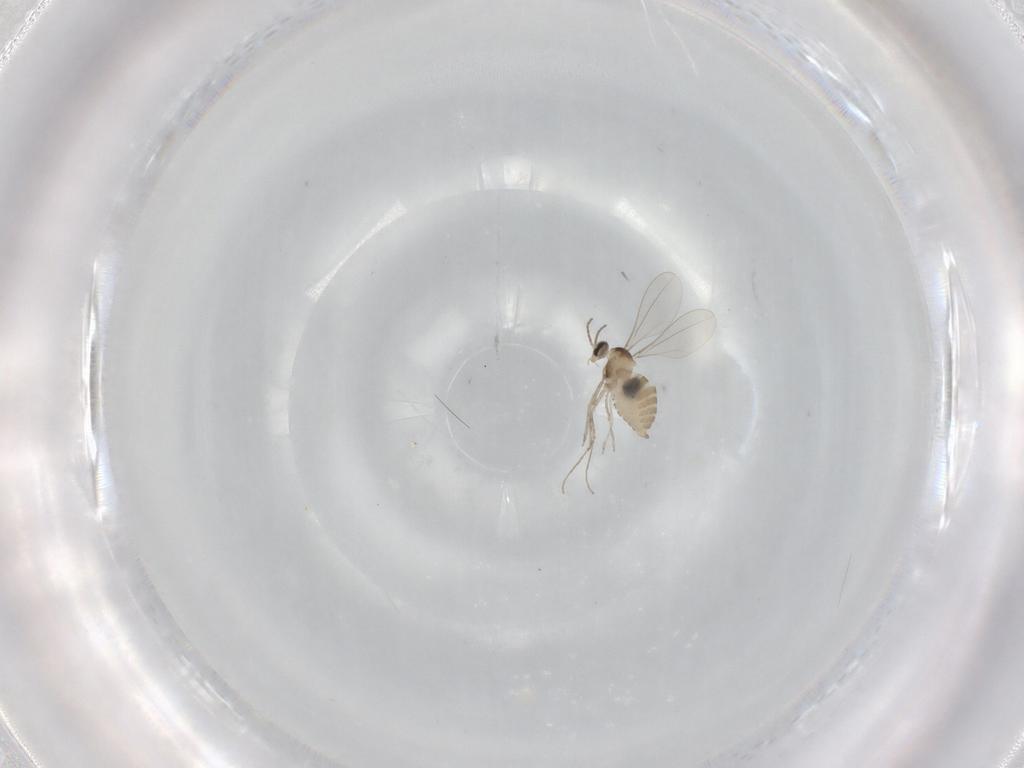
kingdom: Animalia
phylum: Arthropoda
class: Insecta
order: Diptera
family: Cecidomyiidae
